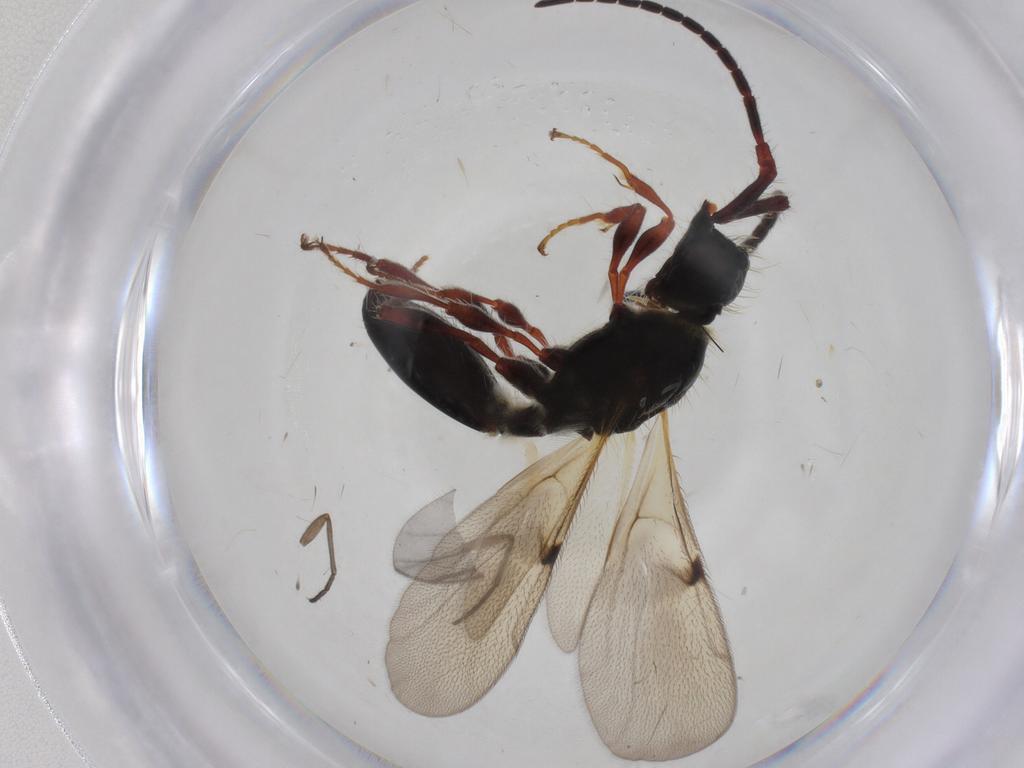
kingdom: Animalia
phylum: Arthropoda
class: Insecta
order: Hymenoptera
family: Diapriidae
